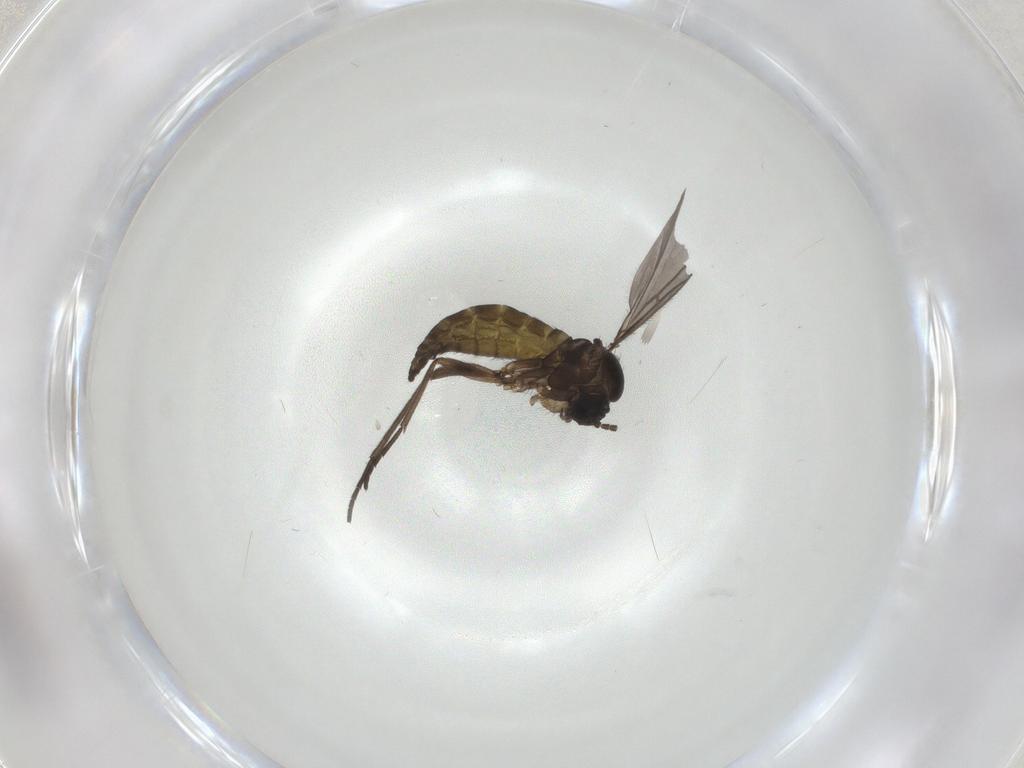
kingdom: Animalia
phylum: Arthropoda
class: Insecta
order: Diptera
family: Sciaridae
